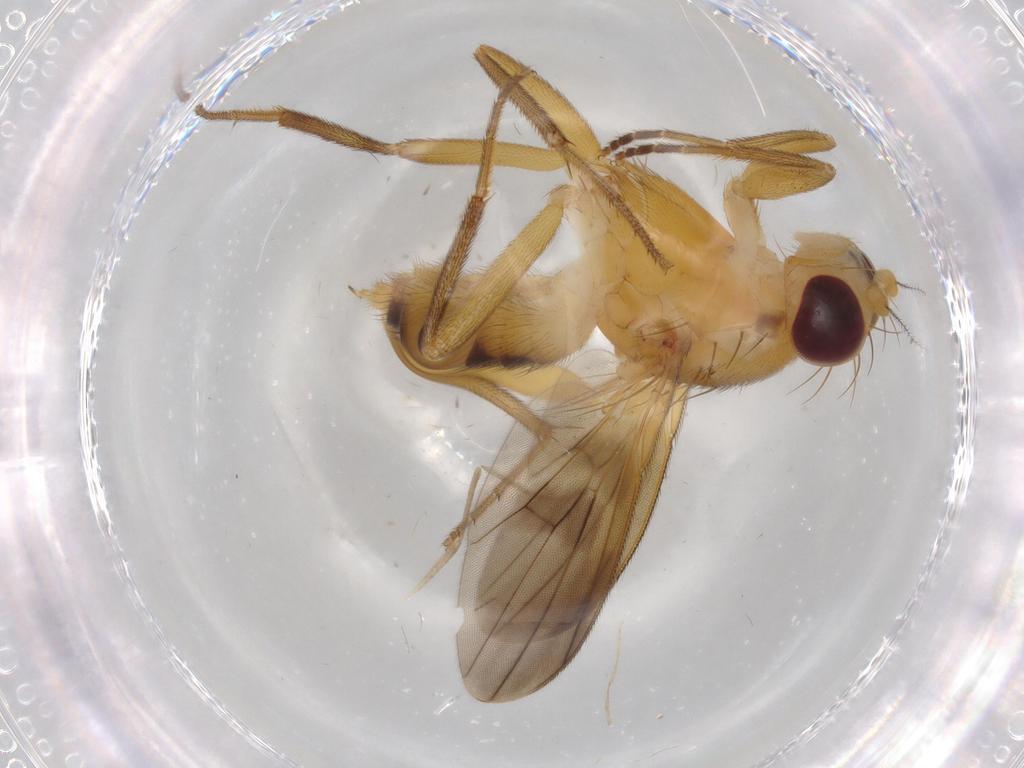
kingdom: Animalia
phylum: Arthropoda
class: Insecta
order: Diptera
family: Clusiidae
